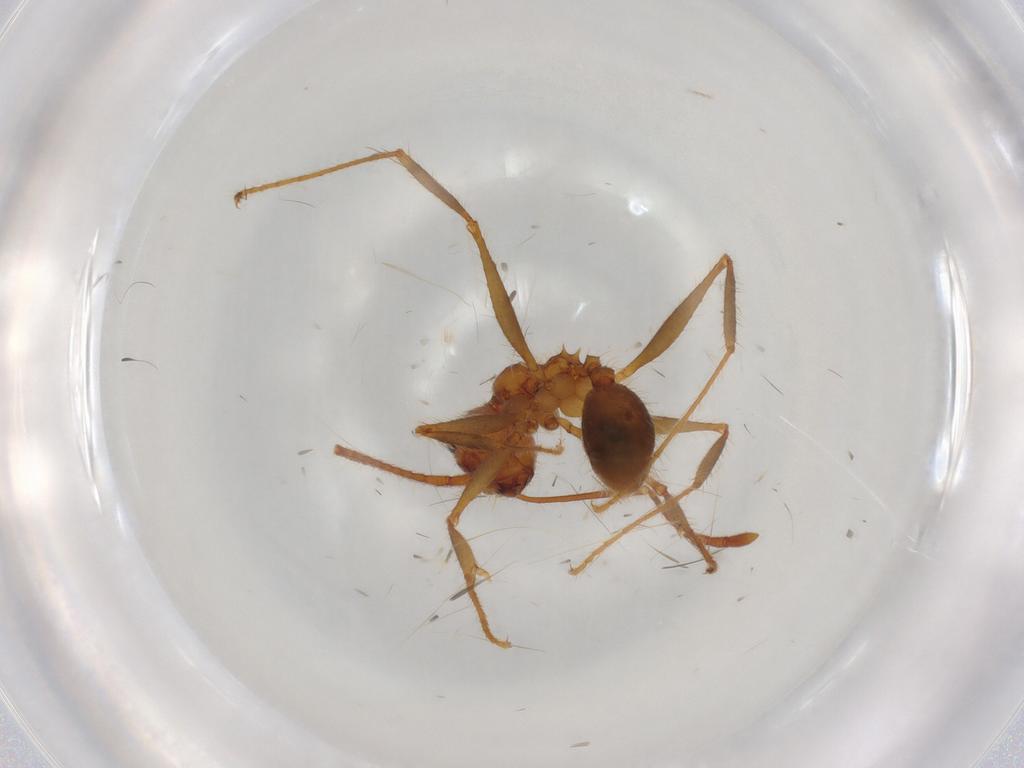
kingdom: Animalia
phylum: Arthropoda
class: Insecta
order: Hymenoptera
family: Formicidae
